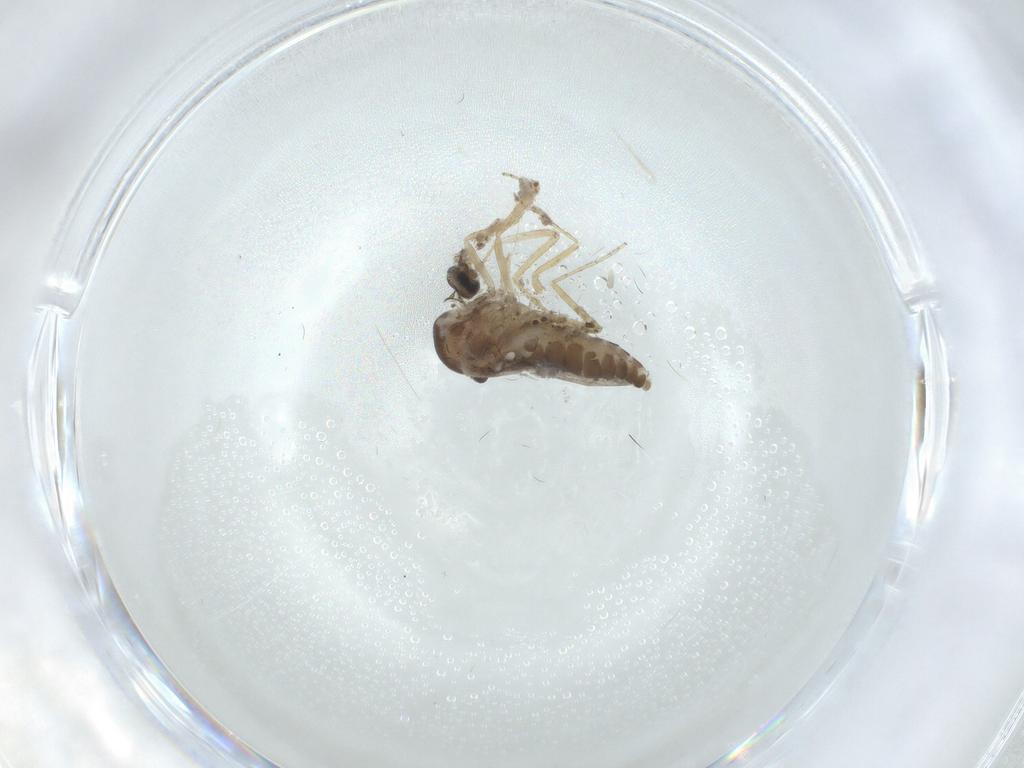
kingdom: Animalia
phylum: Arthropoda
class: Insecta
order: Diptera
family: Ceratopogonidae
